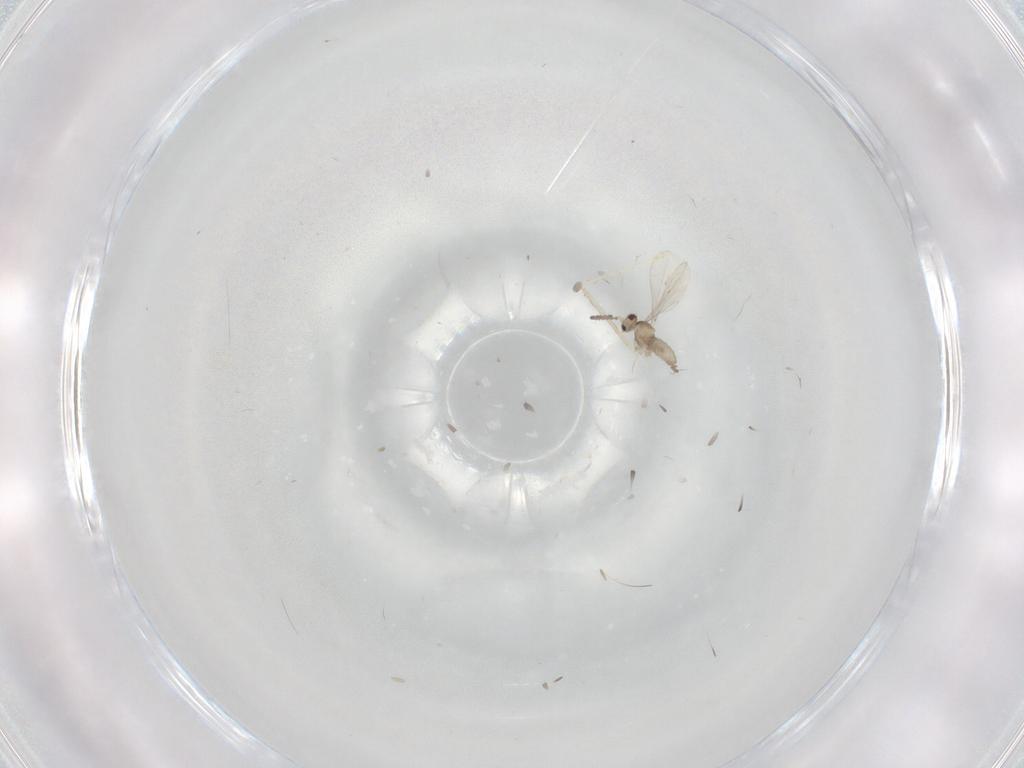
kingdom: Animalia
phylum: Arthropoda
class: Insecta
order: Diptera
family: Cecidomyiidae
